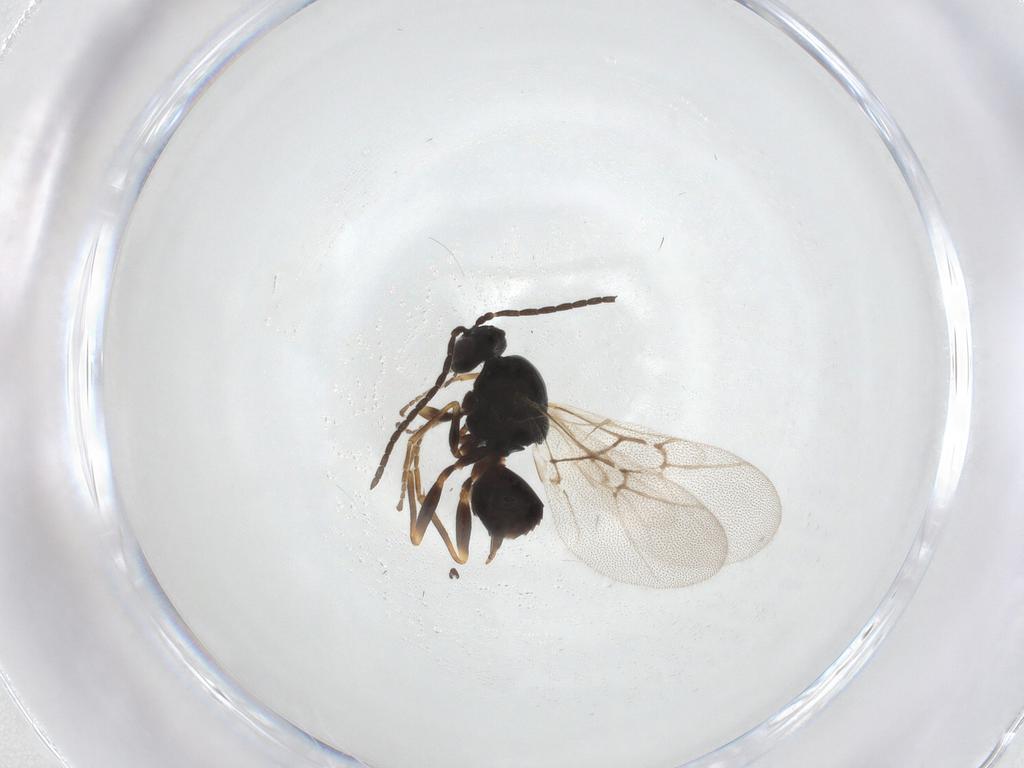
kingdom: Animalia
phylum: Arthropoda
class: Insecta
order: Hymenoptera
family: Cynipidae
